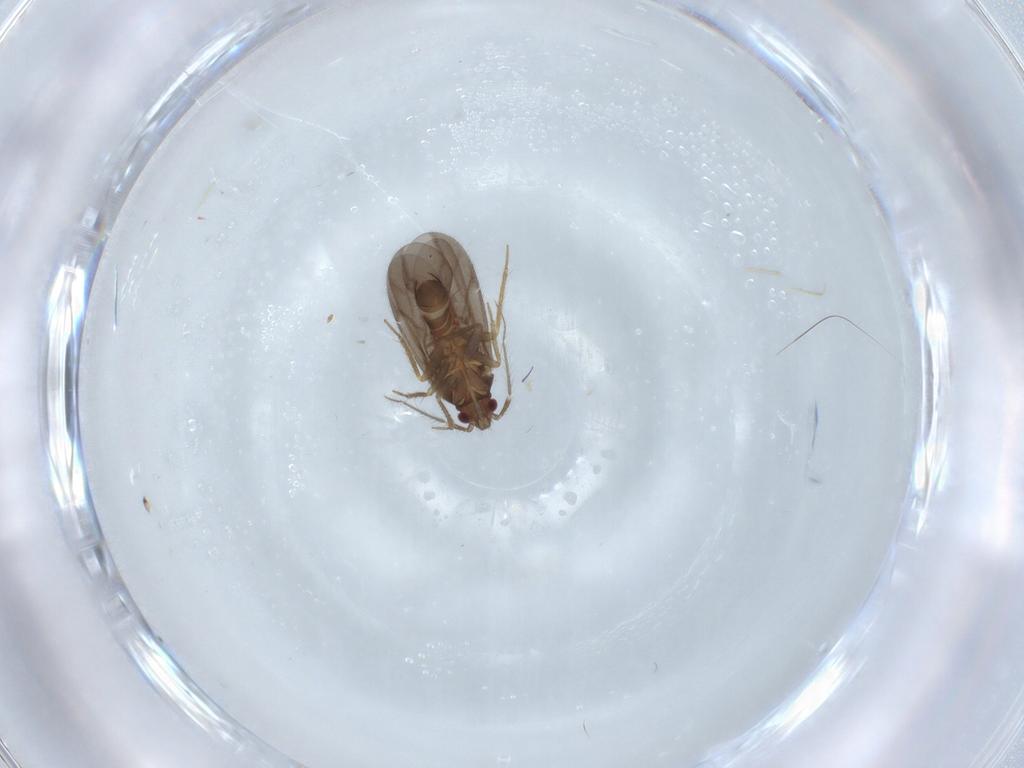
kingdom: Animalia
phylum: Arthropoda
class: Insecta
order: Hemiptera
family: Ceratocombidae
